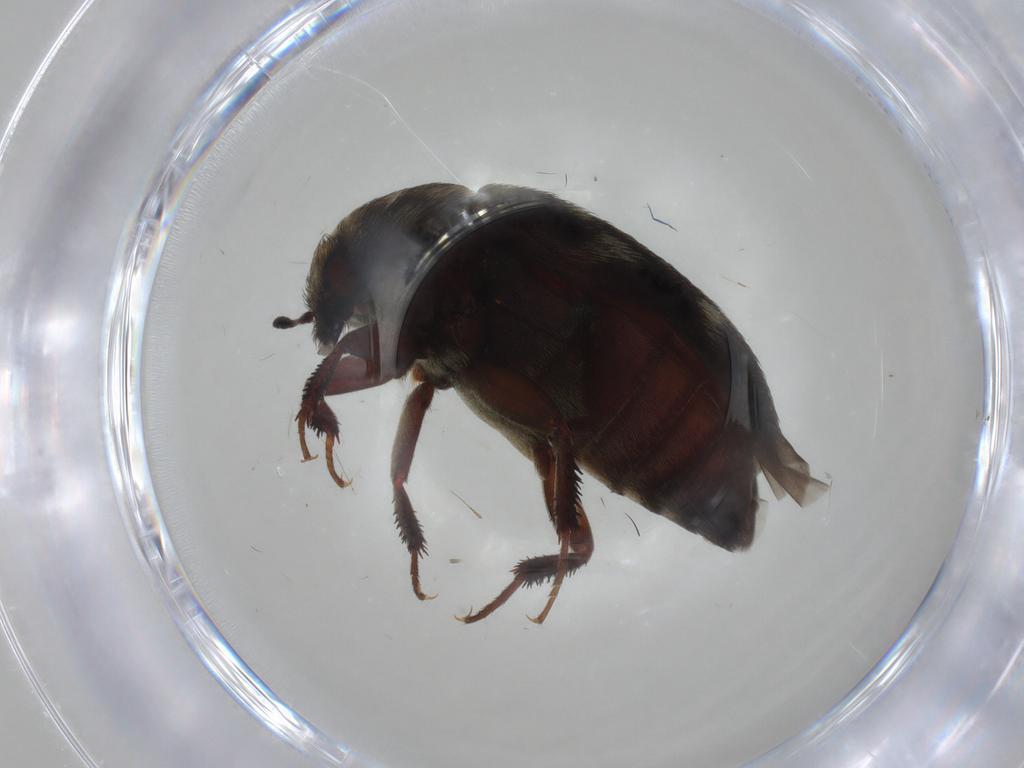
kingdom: Animalia
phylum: Arthropoda
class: Insecta
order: Coleoptera
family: Dermestidae
